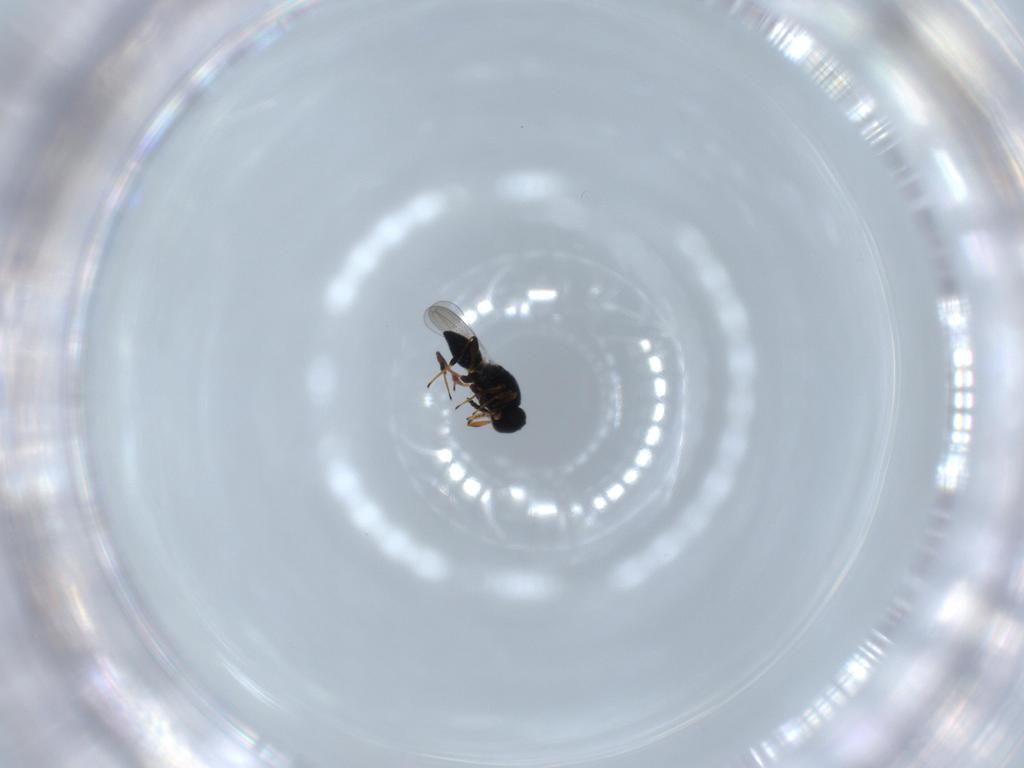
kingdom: Animalia
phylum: Arthropoda
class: Insecta
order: Hymenoptera
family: Platygastridae
